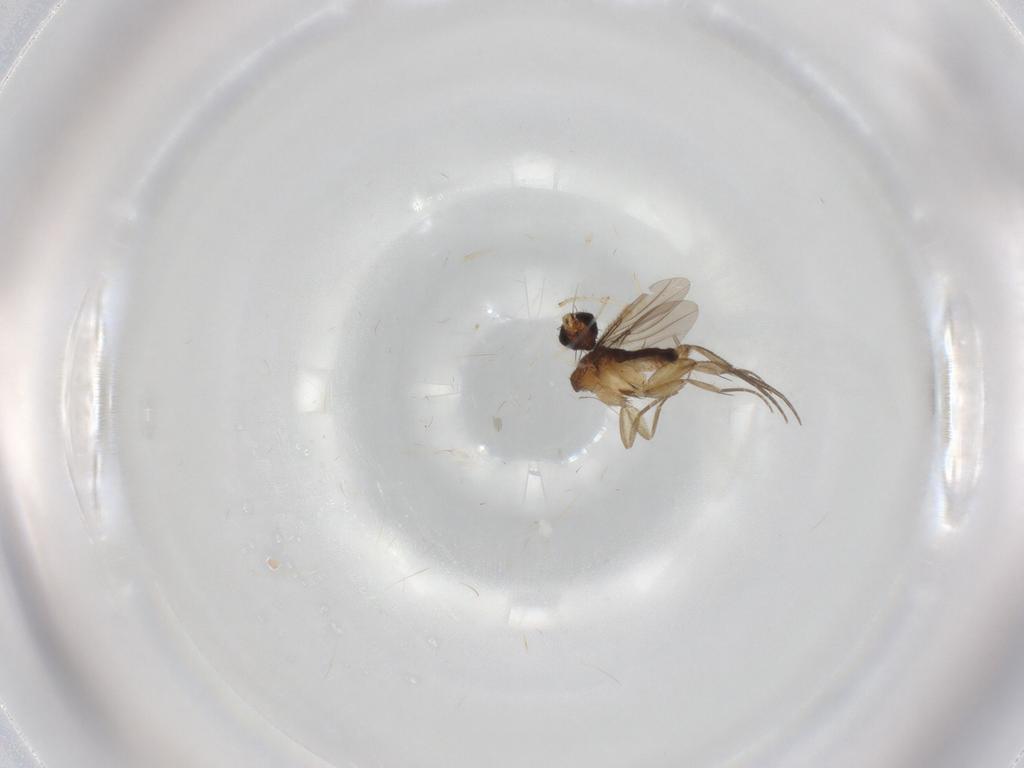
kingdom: Animalia
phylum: Arthropoda
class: Insecta
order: Diptera
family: Phoridae
